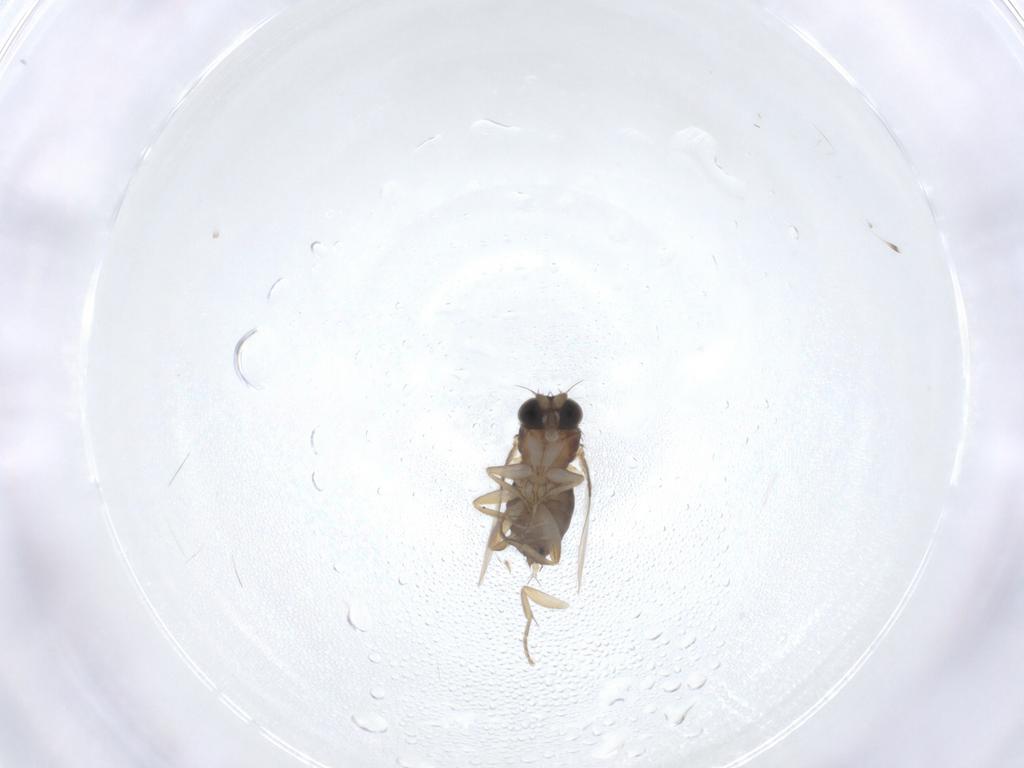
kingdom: Animalia
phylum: Arthropoda
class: Insecta
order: Diptera
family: Phoridae
